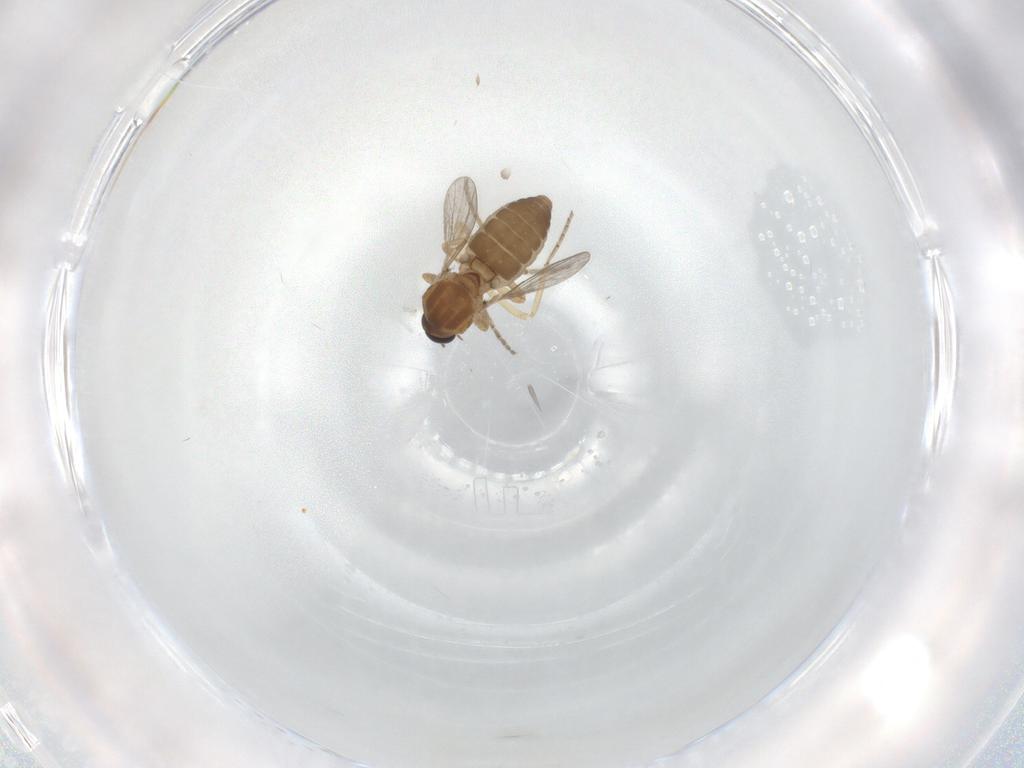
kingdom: Animalia
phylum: Arthropoda
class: Insecta
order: Diptera
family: Ceratopogonidae
